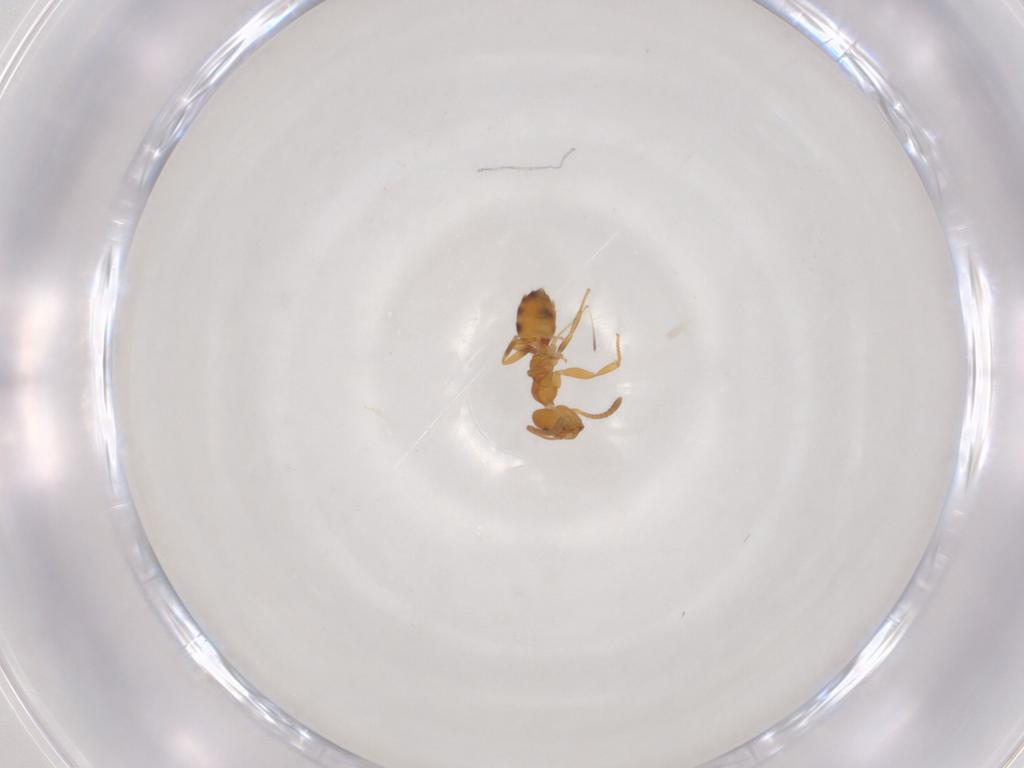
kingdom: Animalia
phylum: Arthropoda
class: Insecta
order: Hymenoptera
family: Formicidae
